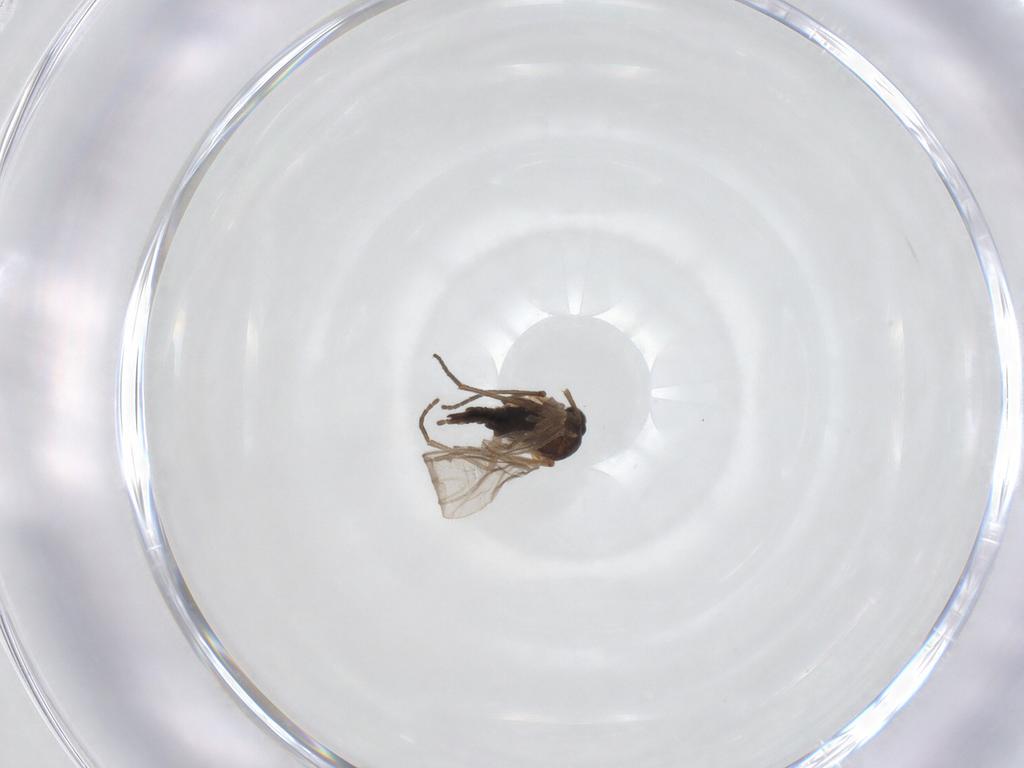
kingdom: Animalia
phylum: Arthropoda
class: Insecta
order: Diptera
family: Sciaridae
